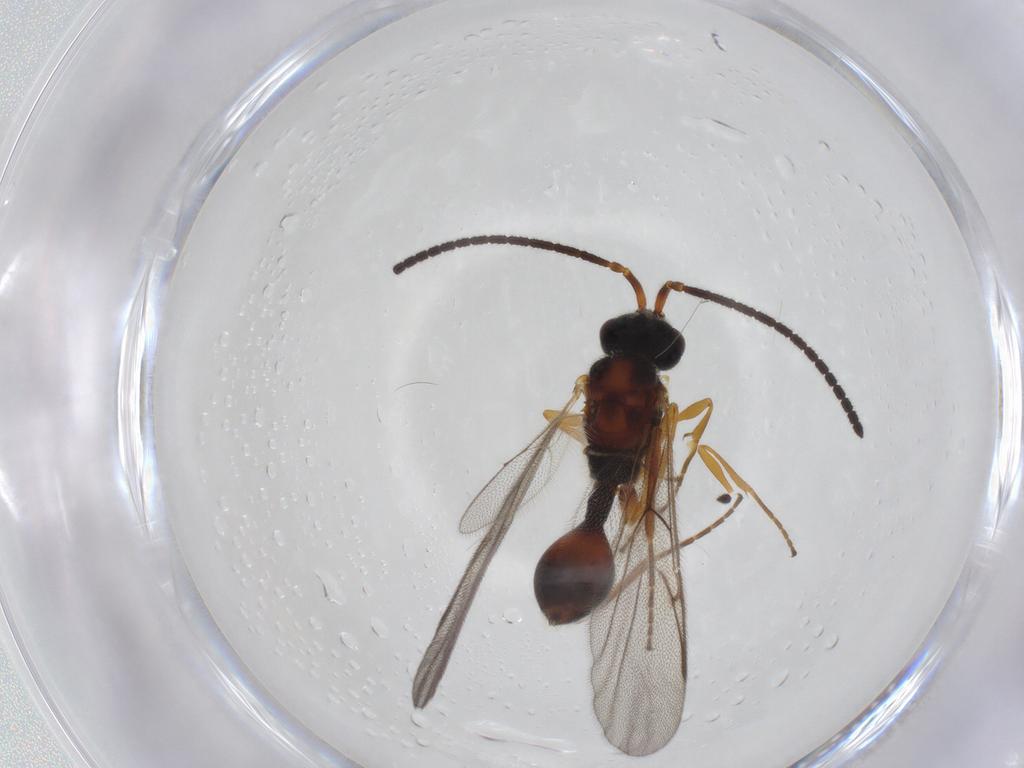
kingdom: Animalia
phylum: Arthropoda
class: Insecta
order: Hymenoptera
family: Diapriidae
